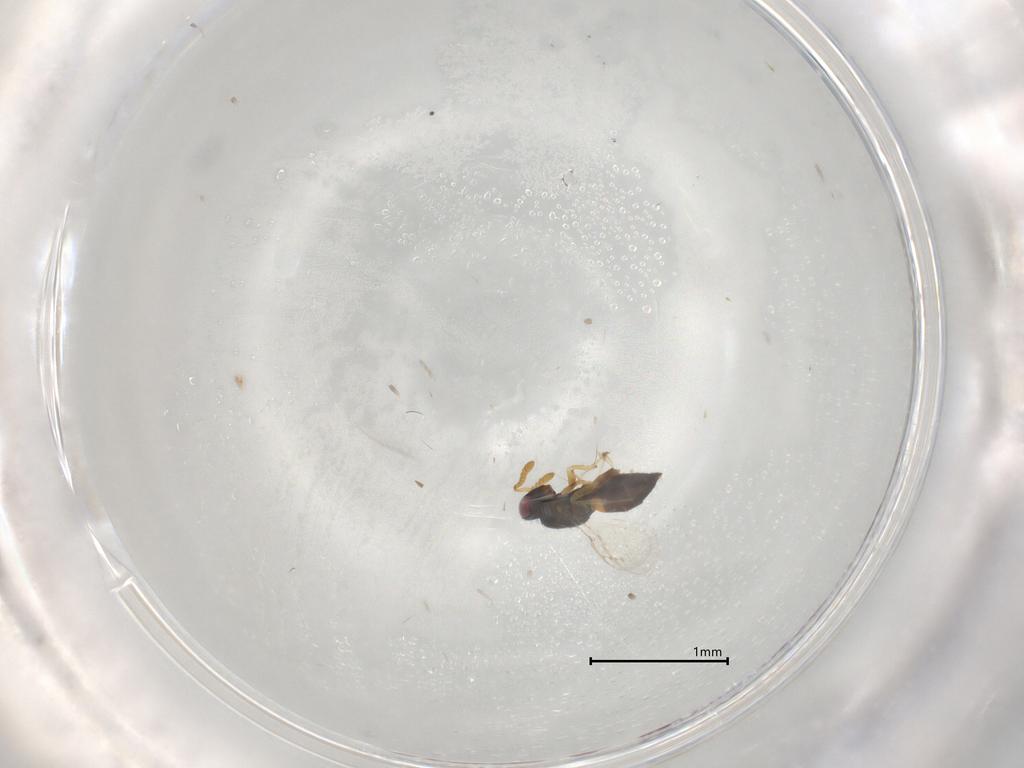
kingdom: Animalia
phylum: Arthropoda
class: Insecta
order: Hymenoptera
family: Pirenidae
